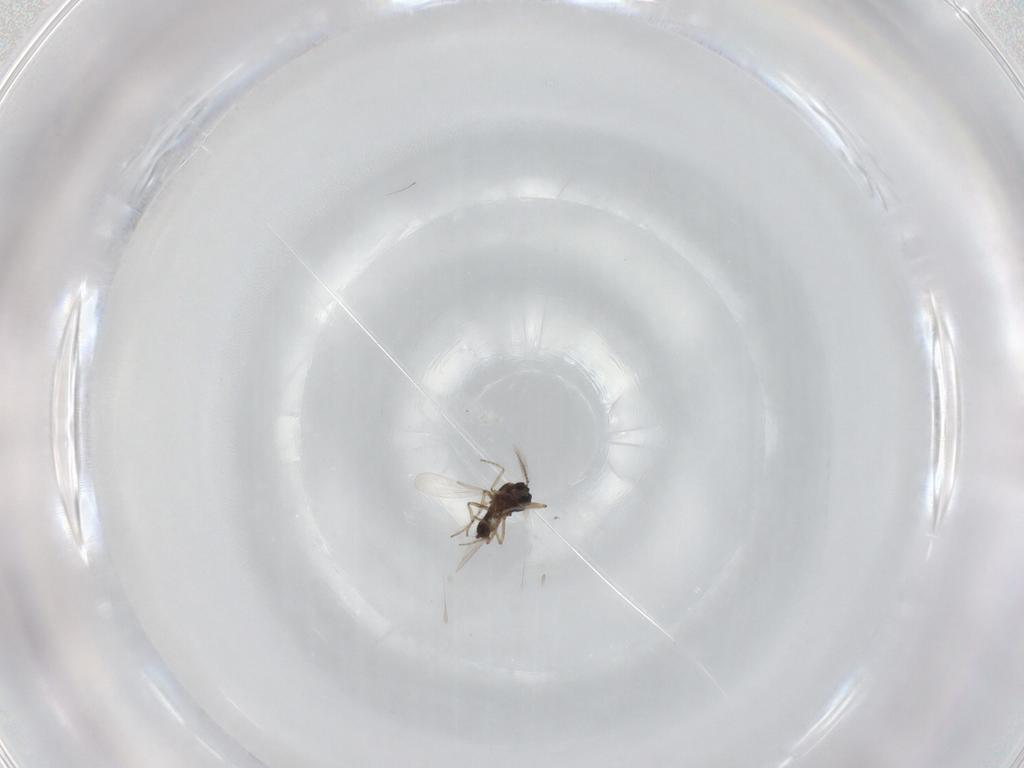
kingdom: Animalia
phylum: Arthropoda
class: Insecta
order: Diptera
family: Ceratopogonidae
